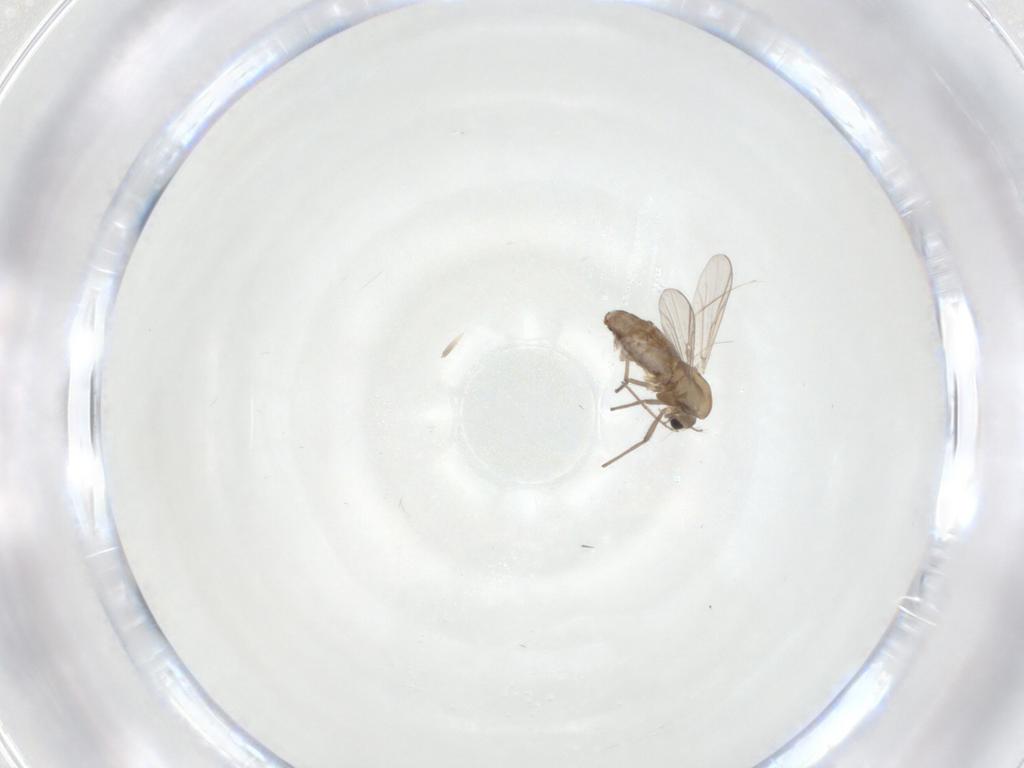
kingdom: Animalia
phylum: Arthropoda
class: Insecta
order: Diptera
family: Chironomidae
